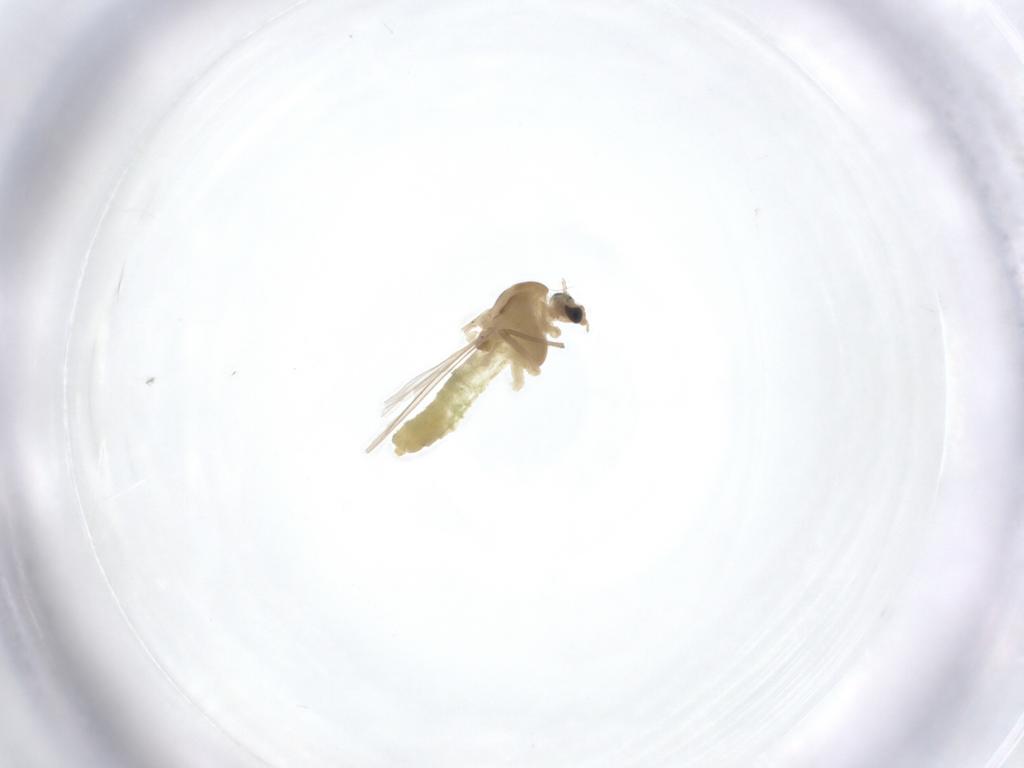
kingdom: Animalia
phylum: Arthropoda
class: Insecta
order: Diptera
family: Chironomidae
